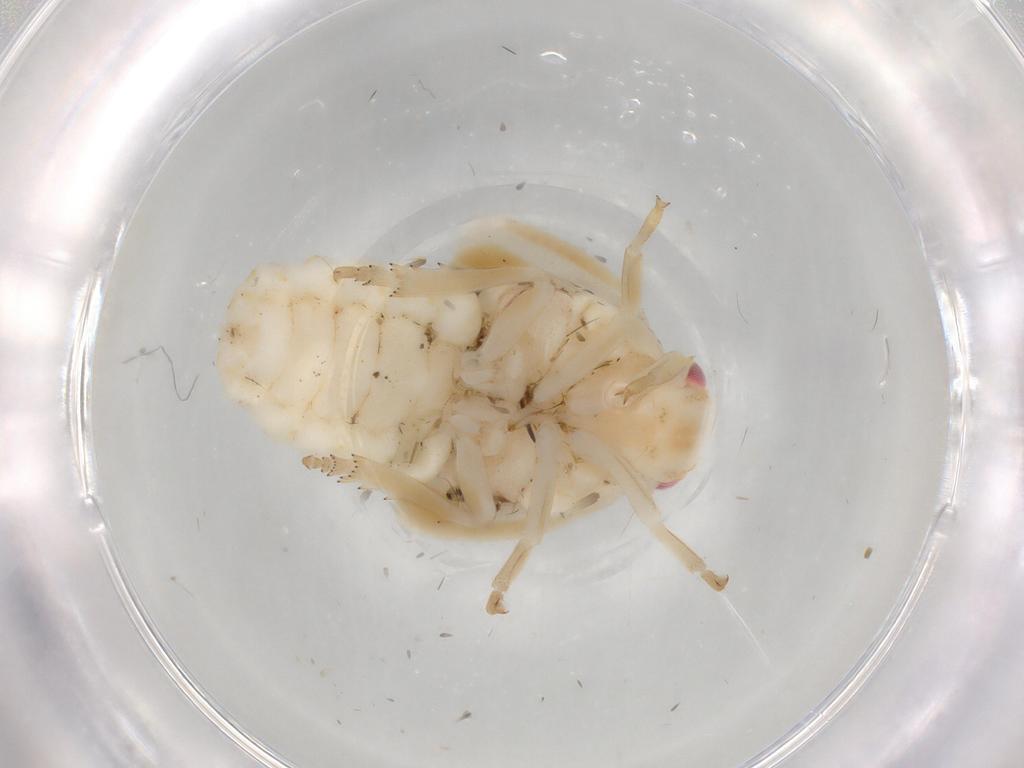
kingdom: Animalia
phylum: Arthropoda
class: Insecta
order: Hemiptera
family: Flatidae
